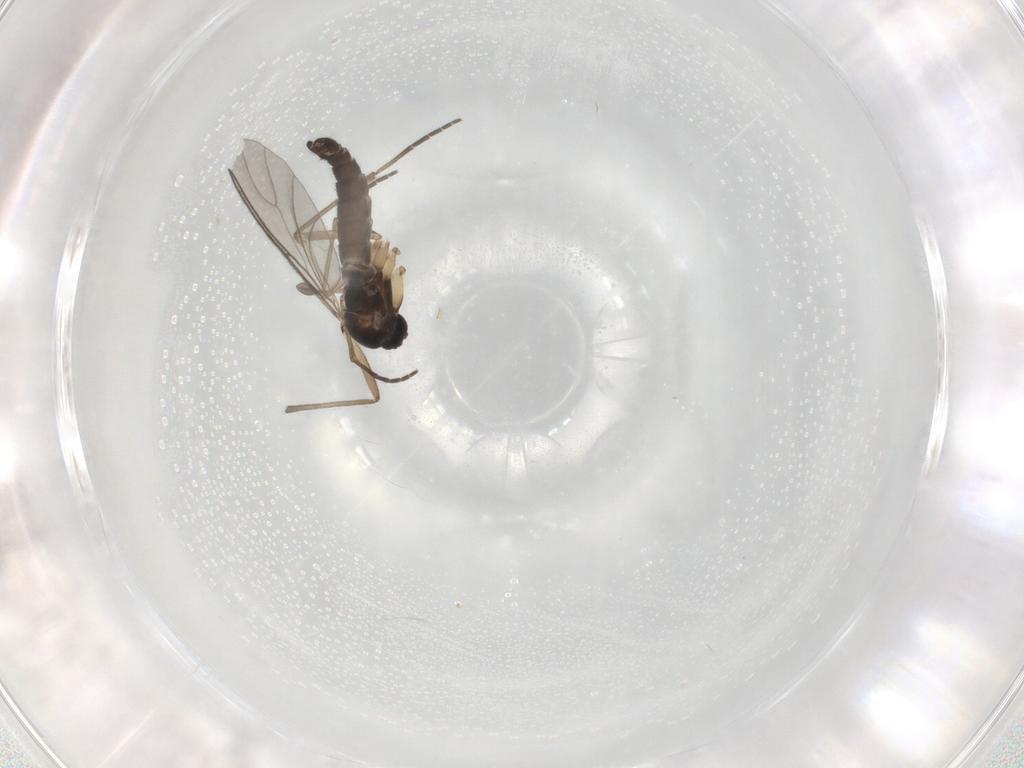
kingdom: Animalia
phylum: Arthropoda
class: Insecta
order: Diptera
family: Sciaridae
